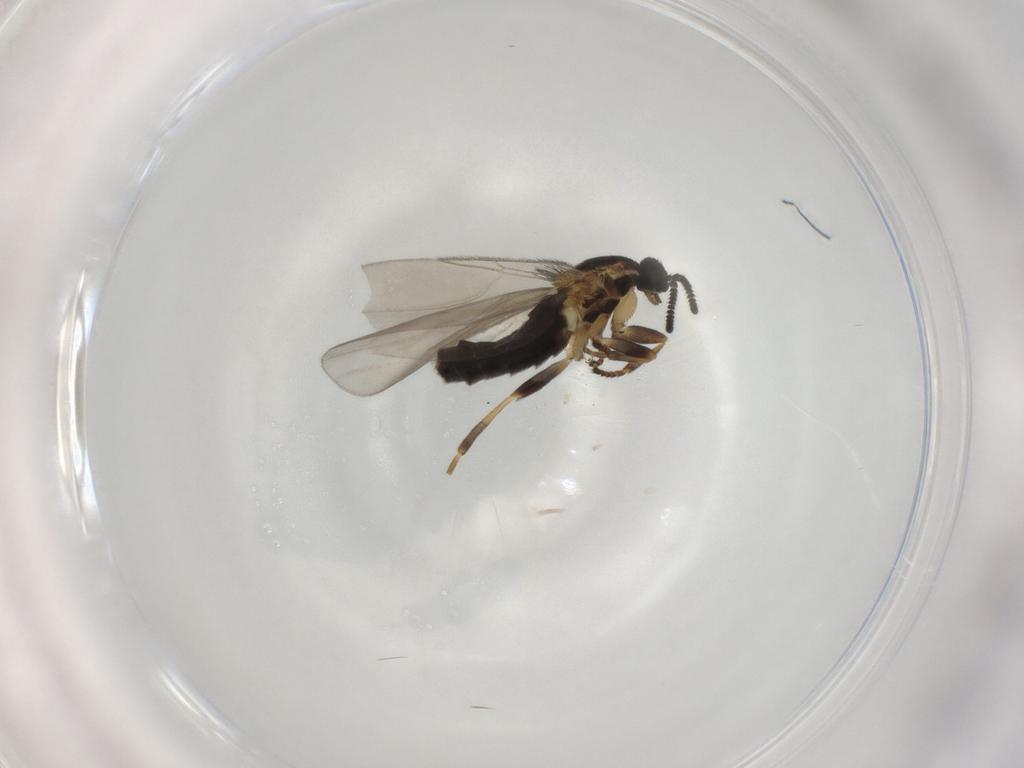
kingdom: Animalia
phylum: Arthropoda
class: Insecta
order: Diptera
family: Scatopsidae
